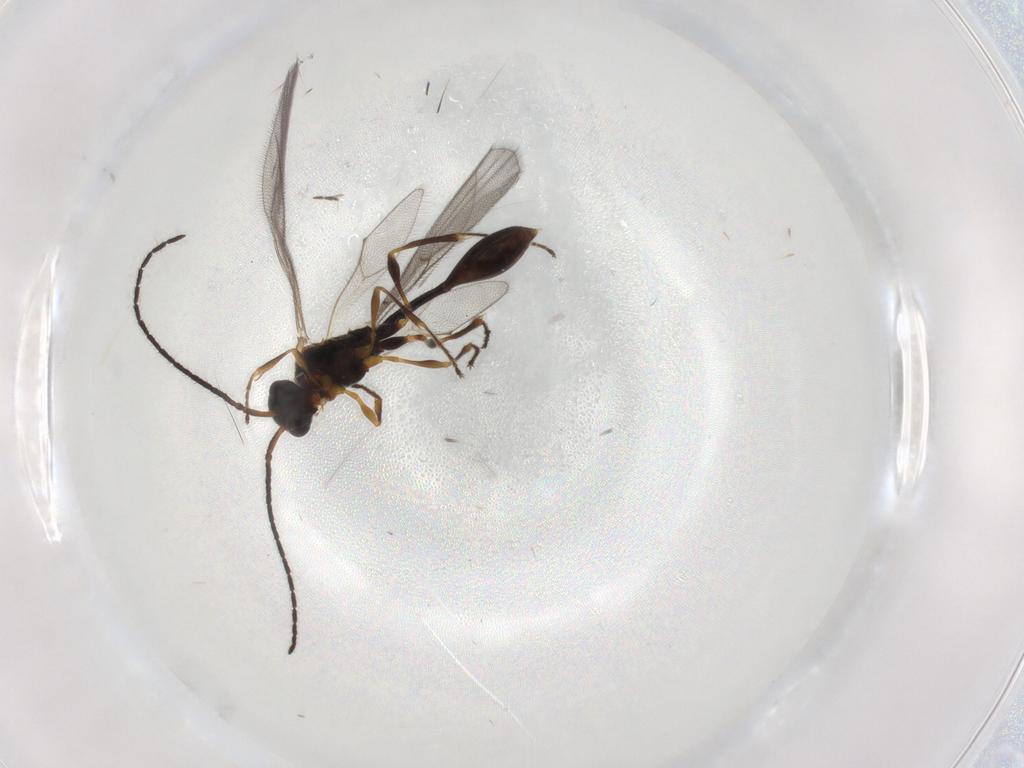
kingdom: Animalia
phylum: Arthropoda
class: Insecta
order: Hymenoptera
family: Diapriidae
